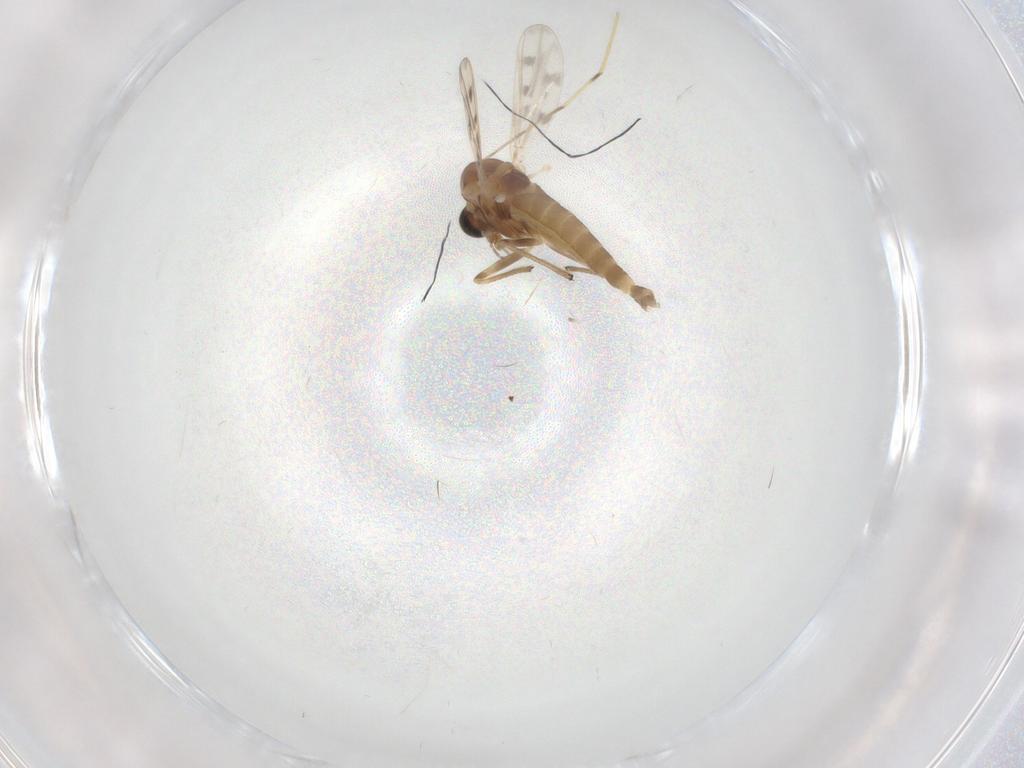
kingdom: Animalia
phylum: Arthropoda
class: Insecta
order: Diptera
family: Chironomidae
